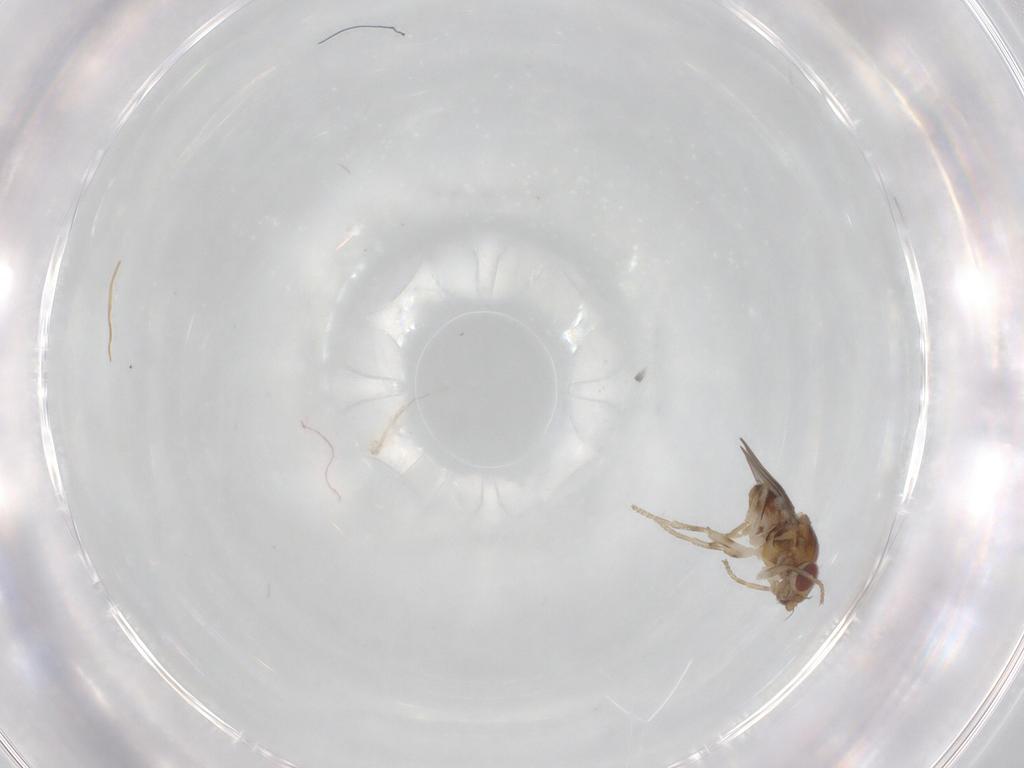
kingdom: Animalia
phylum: Arthropoda
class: Insecta
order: Diptera
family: Chloropidae
